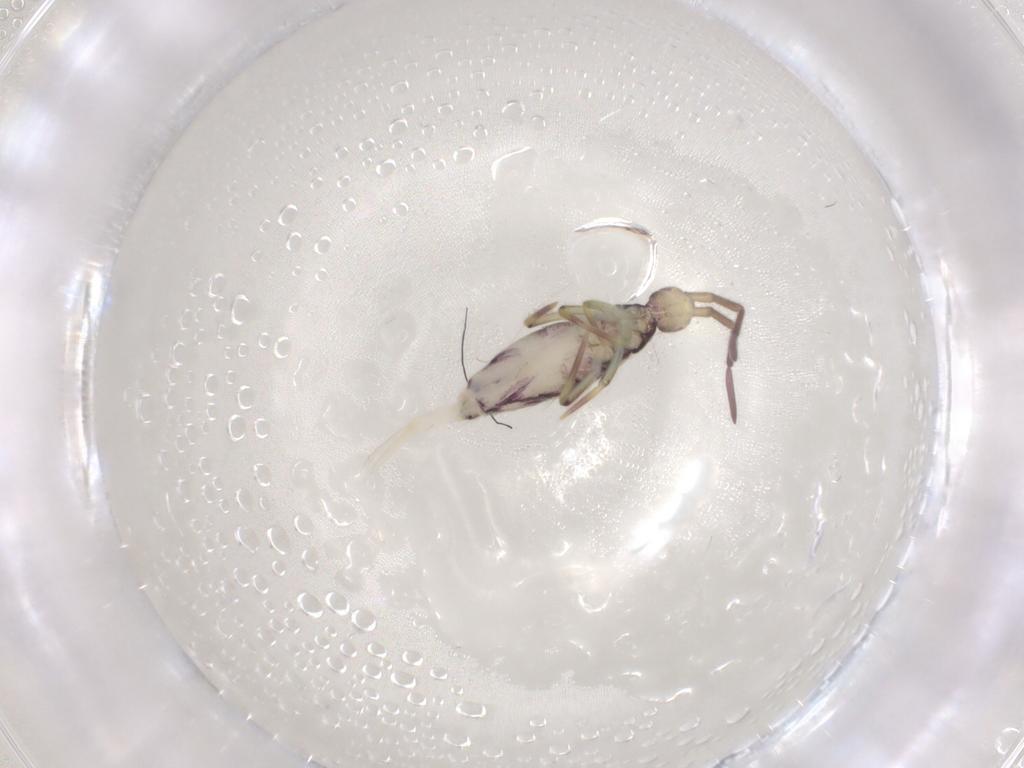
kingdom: Animalia
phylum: Arthropoda
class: Collembola
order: Entomobryomorpha
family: Entomobryidae
